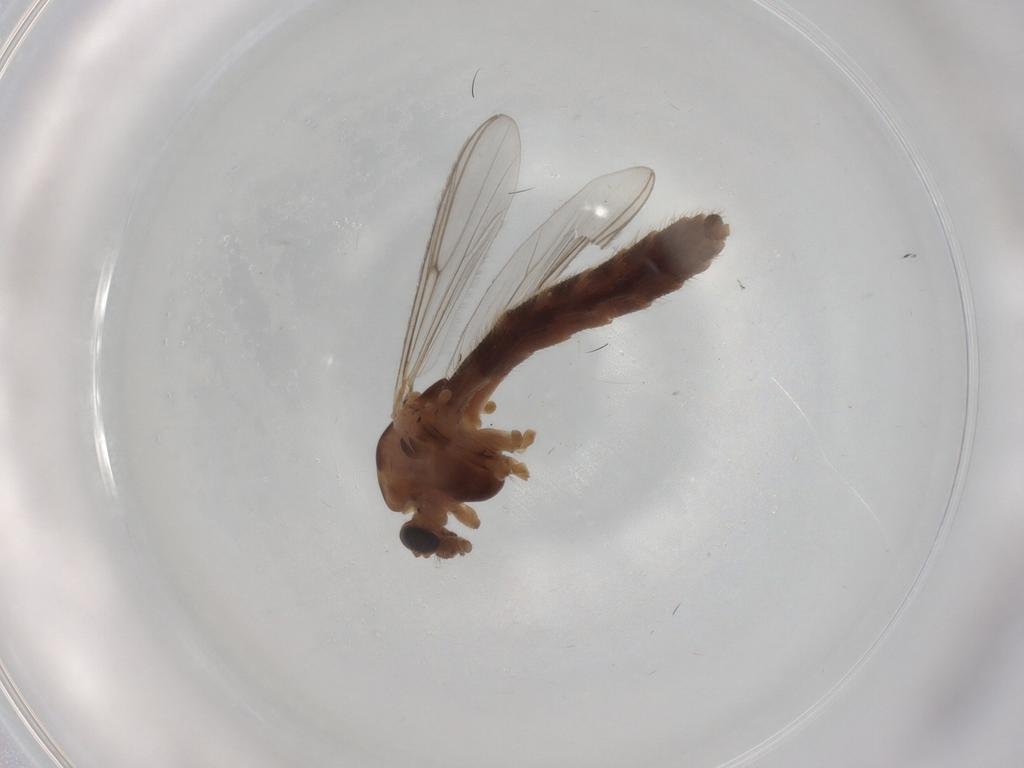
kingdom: Animalia
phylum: Arthropoda
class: Insecta
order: Diptera
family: Chironomidae
